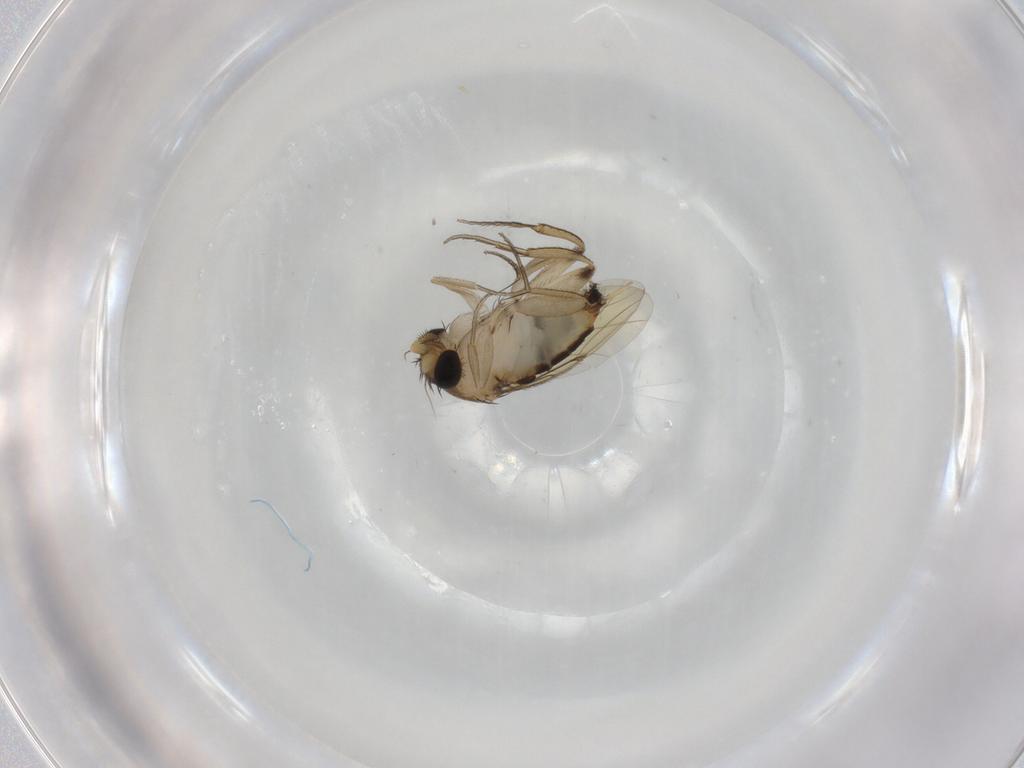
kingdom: Animalia
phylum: Arthropoda
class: Insecta
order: Diptera
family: Phoridae
